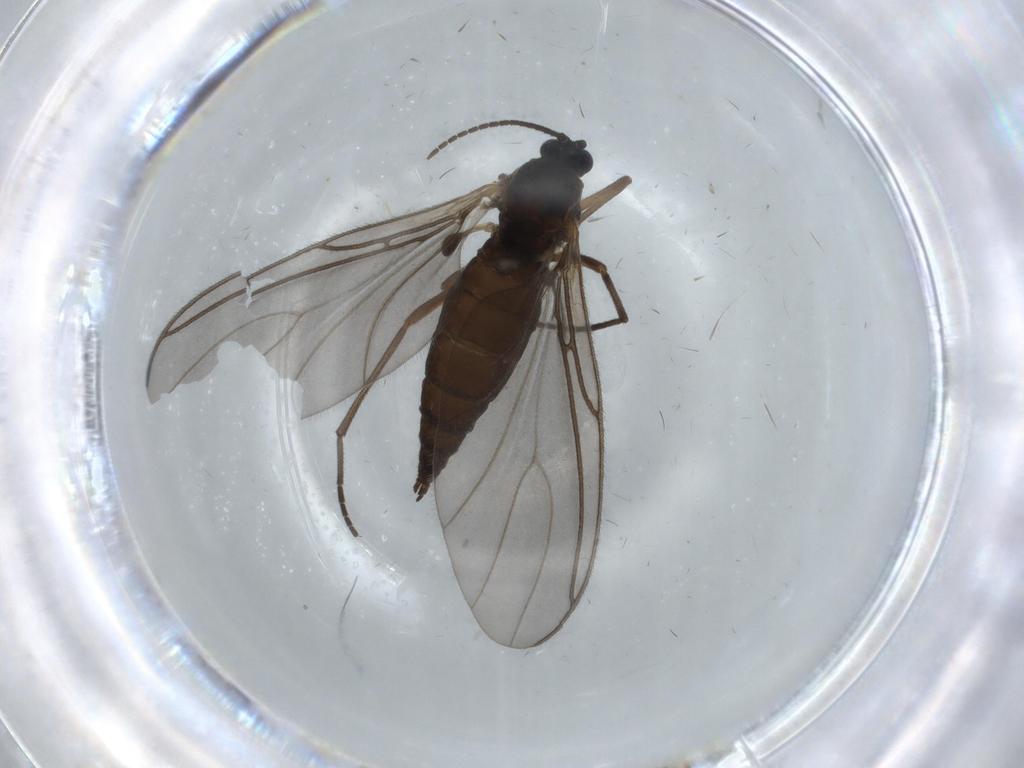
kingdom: Animalia
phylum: Arthropoda
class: Insecta
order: Diptera
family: Sciaridae
